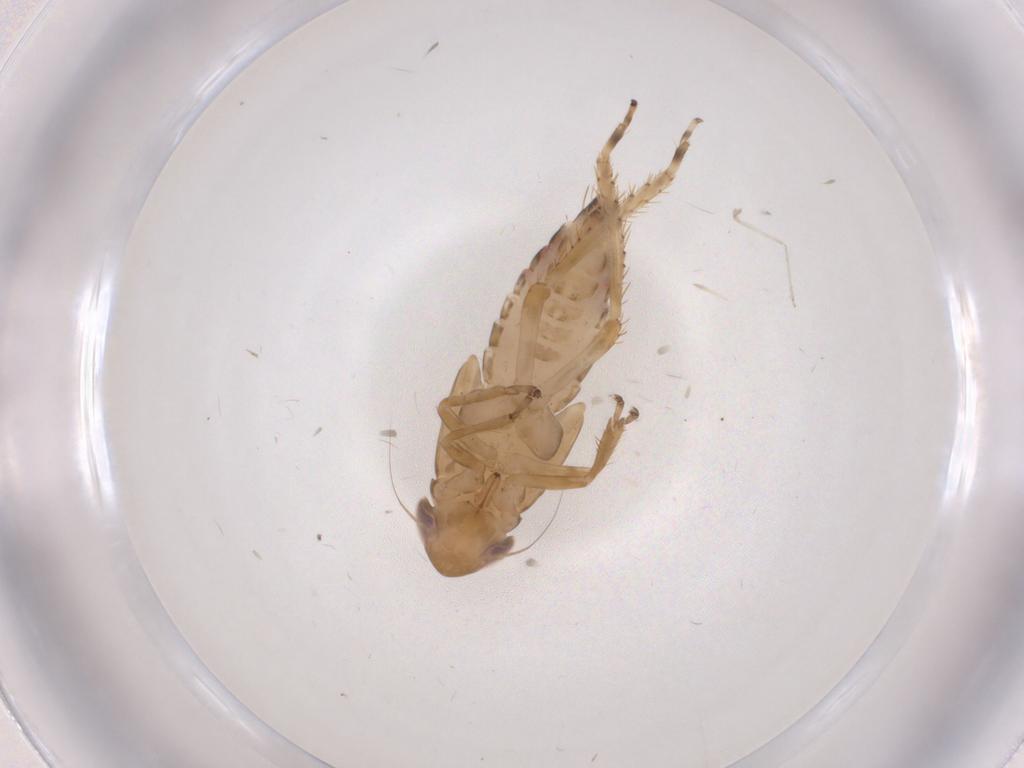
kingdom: Animalia
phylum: Arthropoda
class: Insecta
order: Hemiptera
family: Cicadellidae
